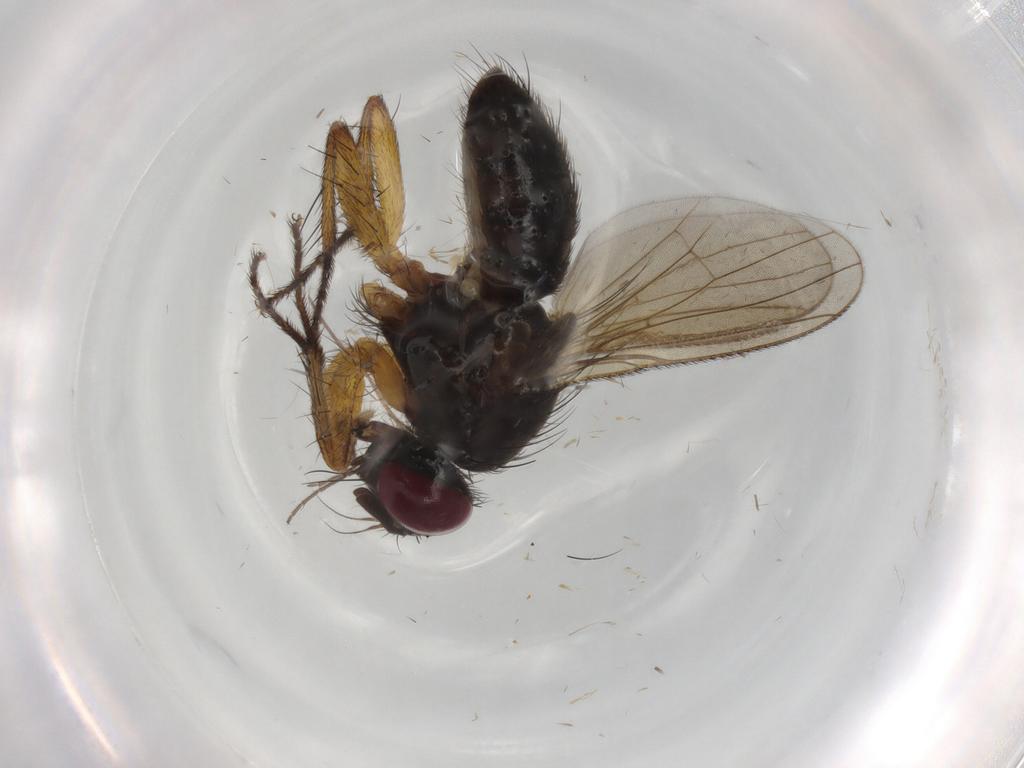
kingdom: Animalia
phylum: Arthropoda
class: Insecta
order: Diptera
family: Muscidae
